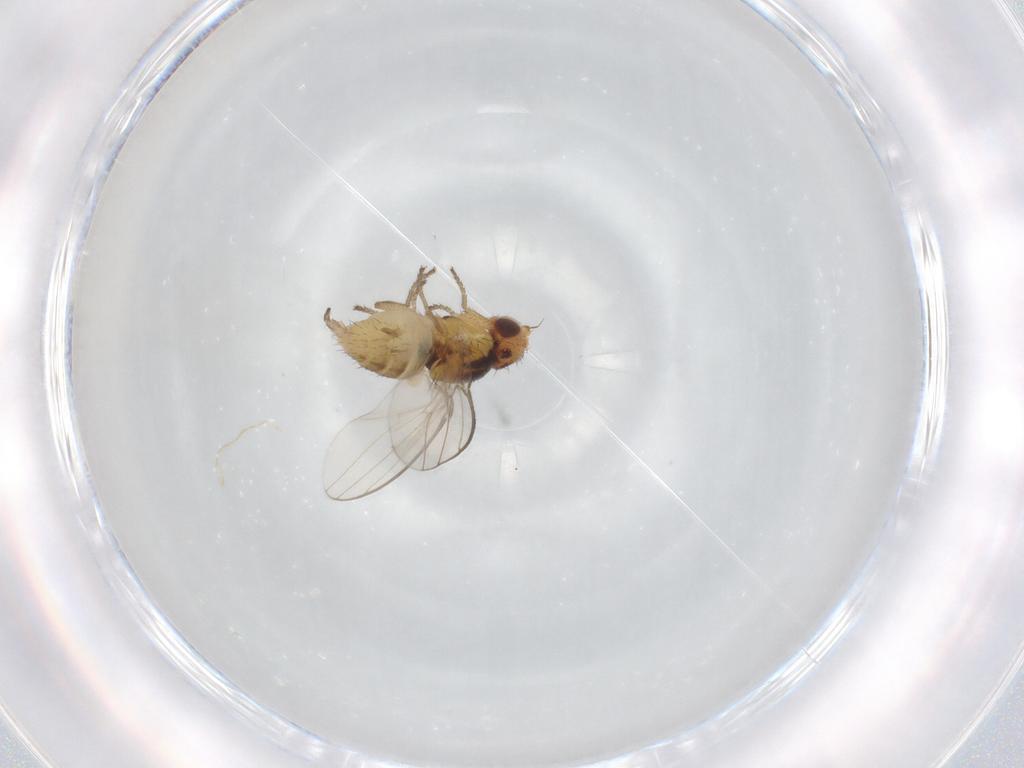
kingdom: Animalia
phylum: Arthropoda
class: Insecta
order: Diptera
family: Chloropidae
